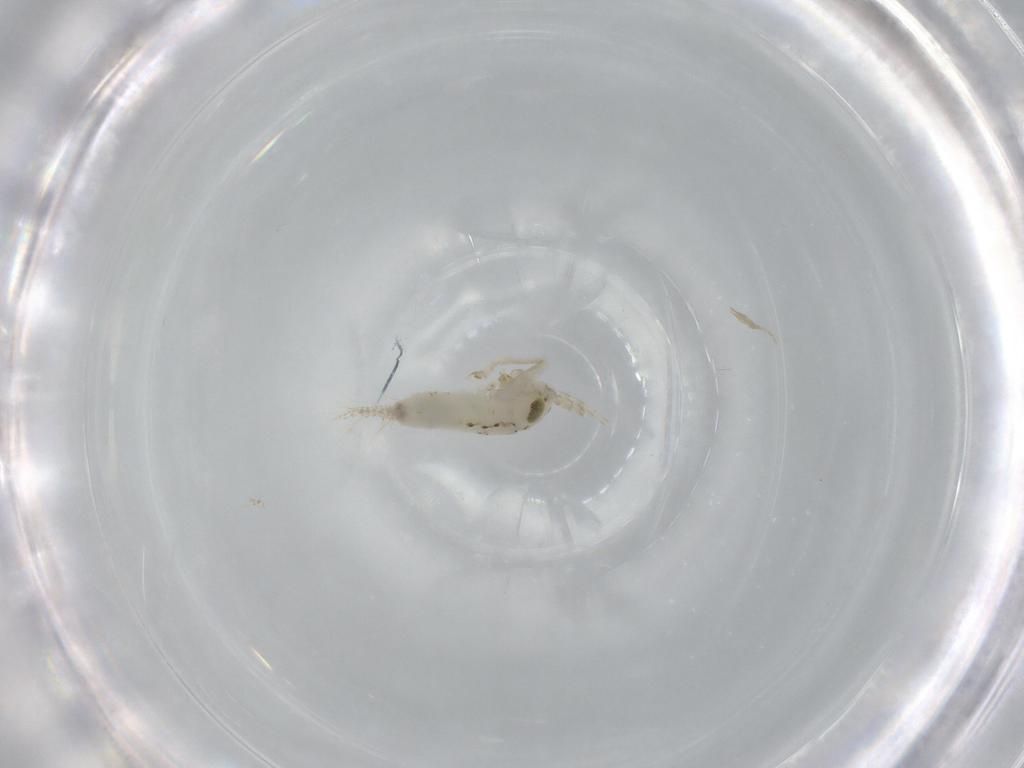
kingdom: Animalia
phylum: Arthropoda
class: Insecta
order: Orthoptera
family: Trigonidiidae
